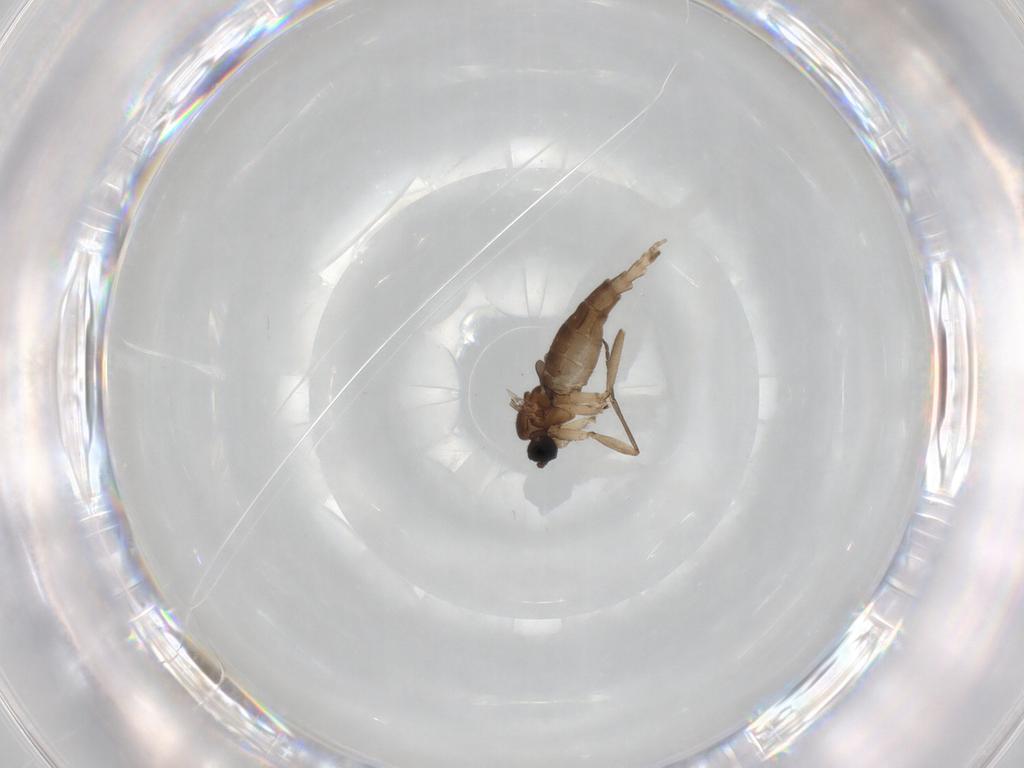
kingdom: Animalia
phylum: Arthropoda
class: Insecta
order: Diptera
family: Sciaridae
